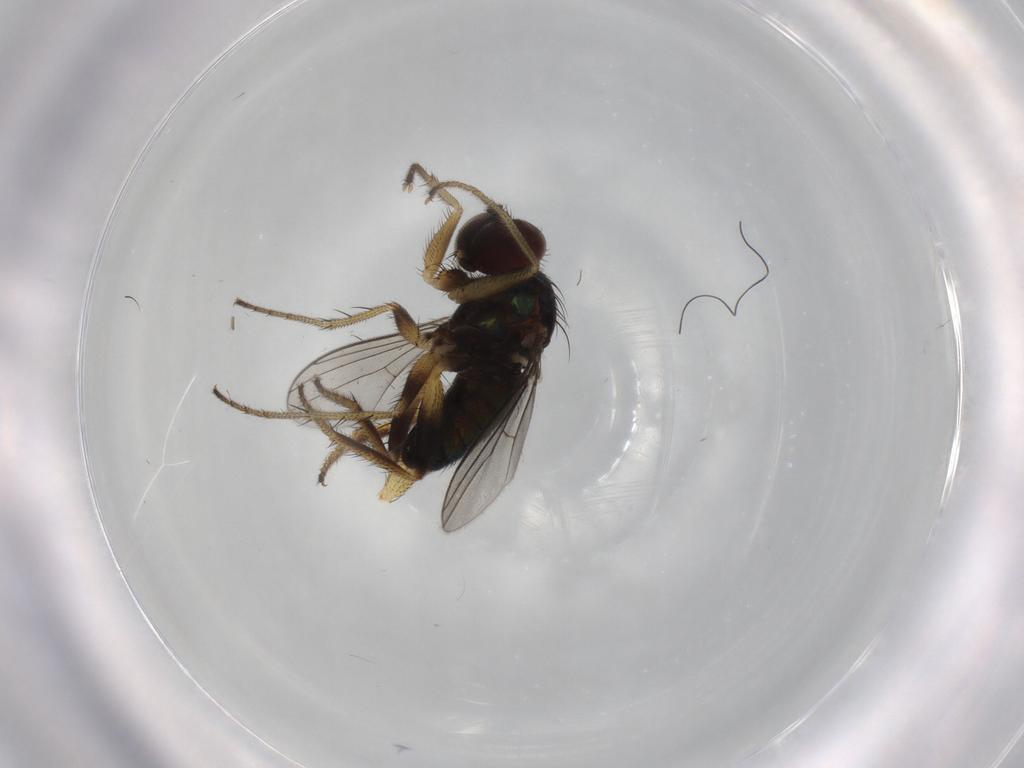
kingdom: Animalia
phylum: Arthropoda
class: Insecta
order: Diptera
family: Dolichopodidae
